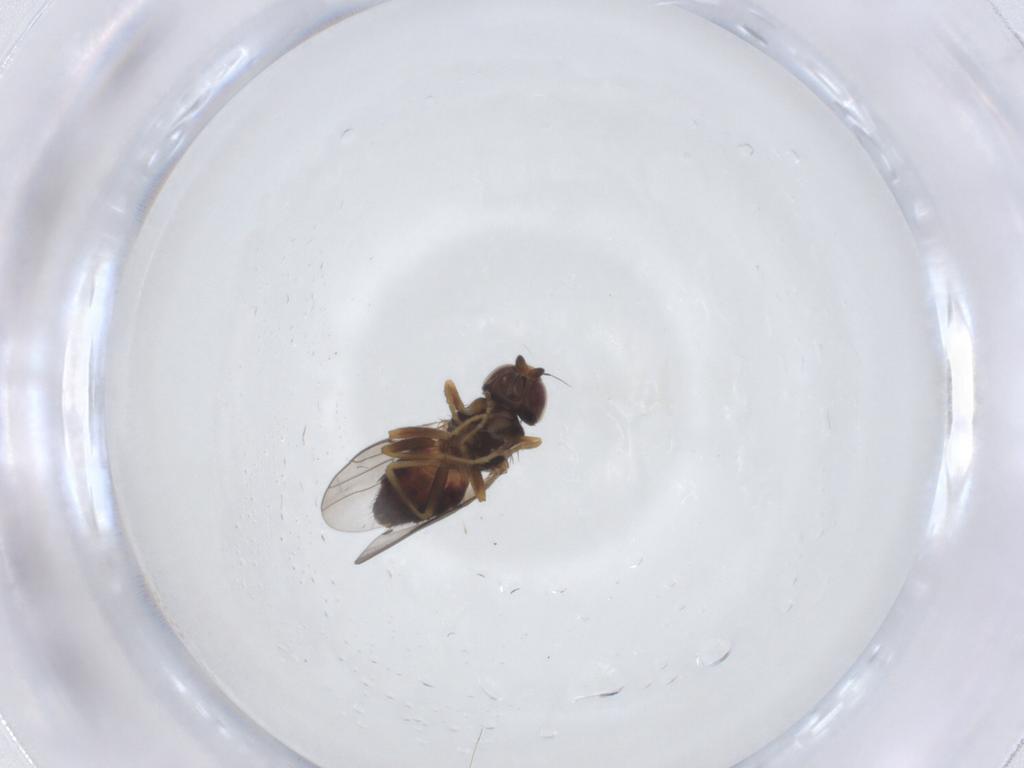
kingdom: Animalia
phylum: Arthropoda
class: Insecta
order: Diptera
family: Chloropidae
